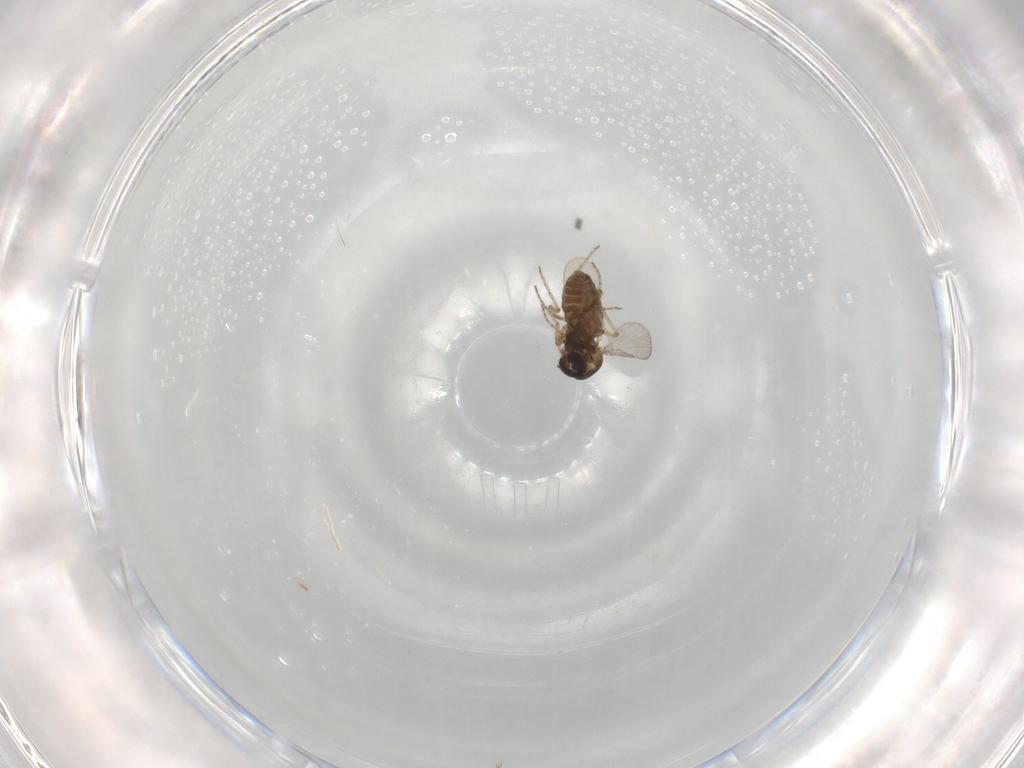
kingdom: Animalia
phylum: Arthropoda
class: Insecta
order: Diptera
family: Ceratopogonidae
